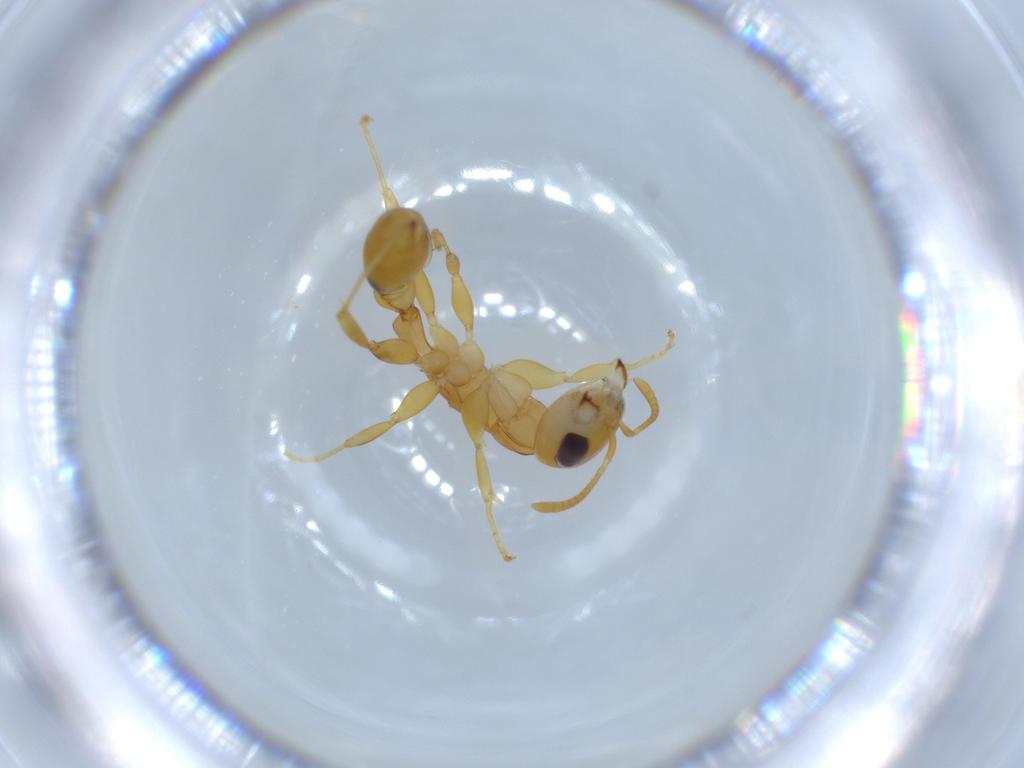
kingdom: Animalia
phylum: Arthropoda
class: Insecta
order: Hymenoptera
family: Formicidae
